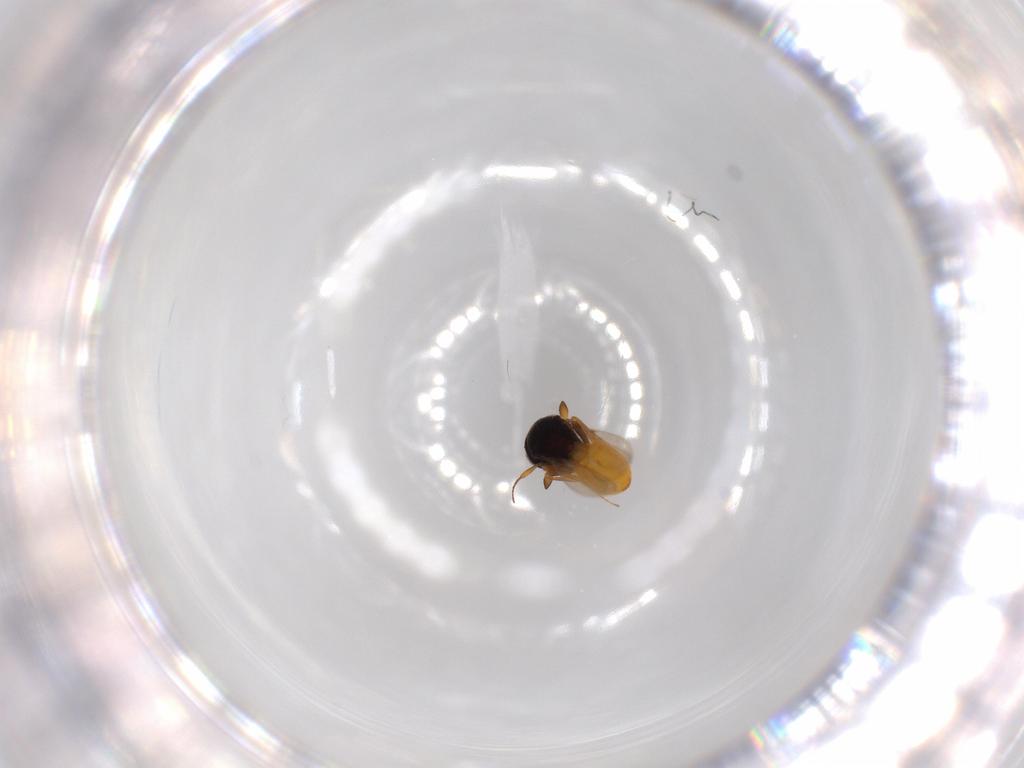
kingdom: Animalia
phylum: Arthropoda
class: Insecta
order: Hymenoptera
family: Scelionidae
